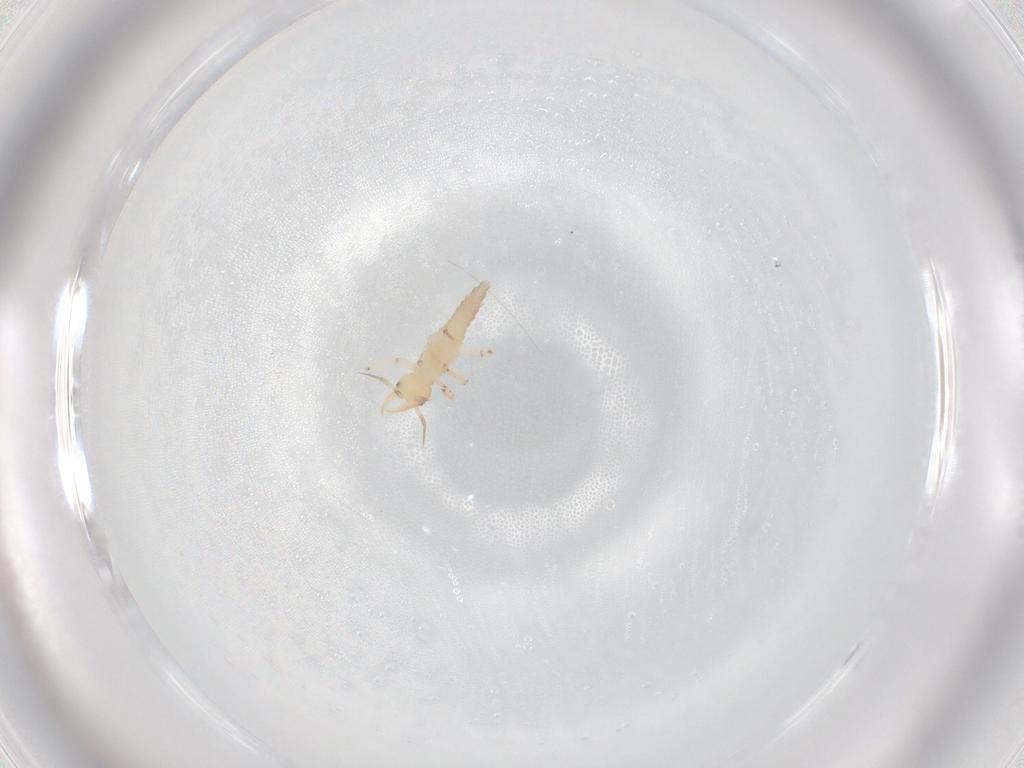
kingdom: Animalia
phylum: Arthropoda
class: Insecta
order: Neuroptera
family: Hemerobiidae
